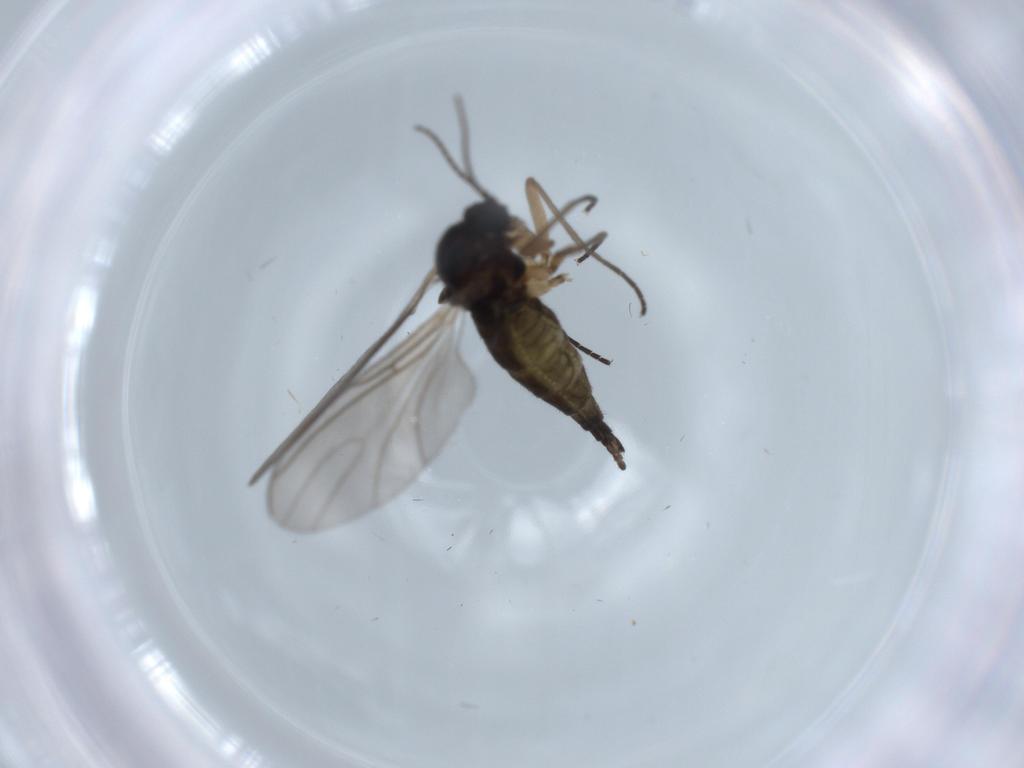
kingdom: Animalia
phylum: Arthropoda
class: Insecta
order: Diptera
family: Sciaridae
